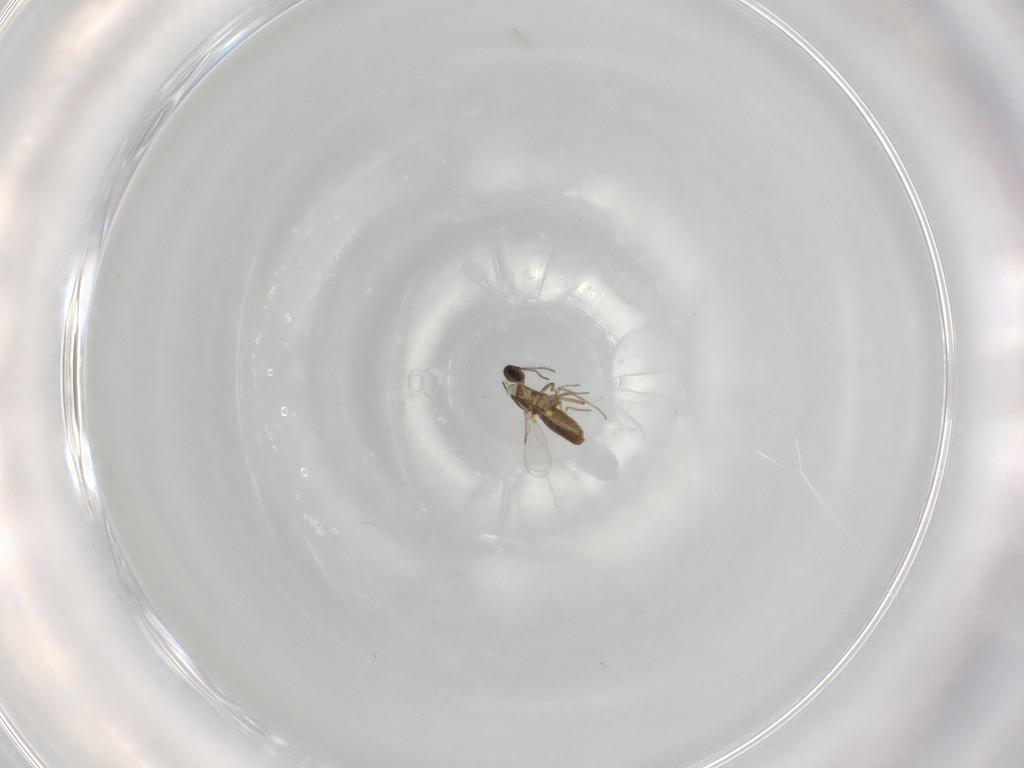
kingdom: Animalia
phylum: Arthropoda
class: Insecta
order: Diptera
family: Ceratopogonidae
